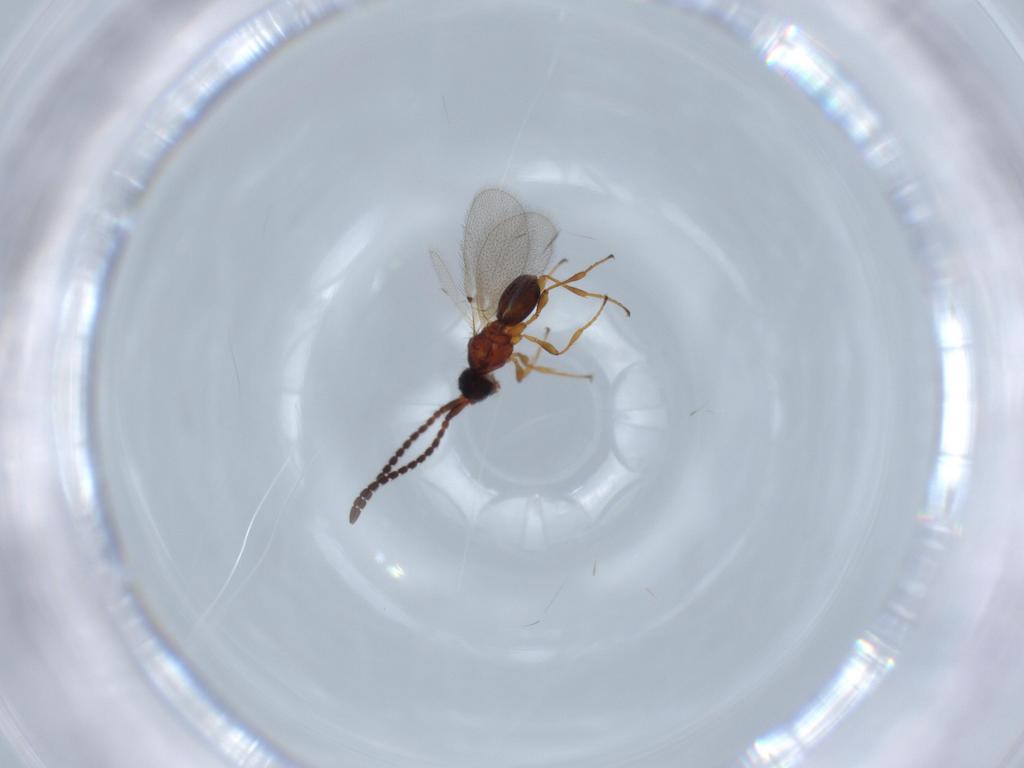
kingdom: Animalia
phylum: Arthropoda
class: Insecta
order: Hymenoptera
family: Diapriidae
